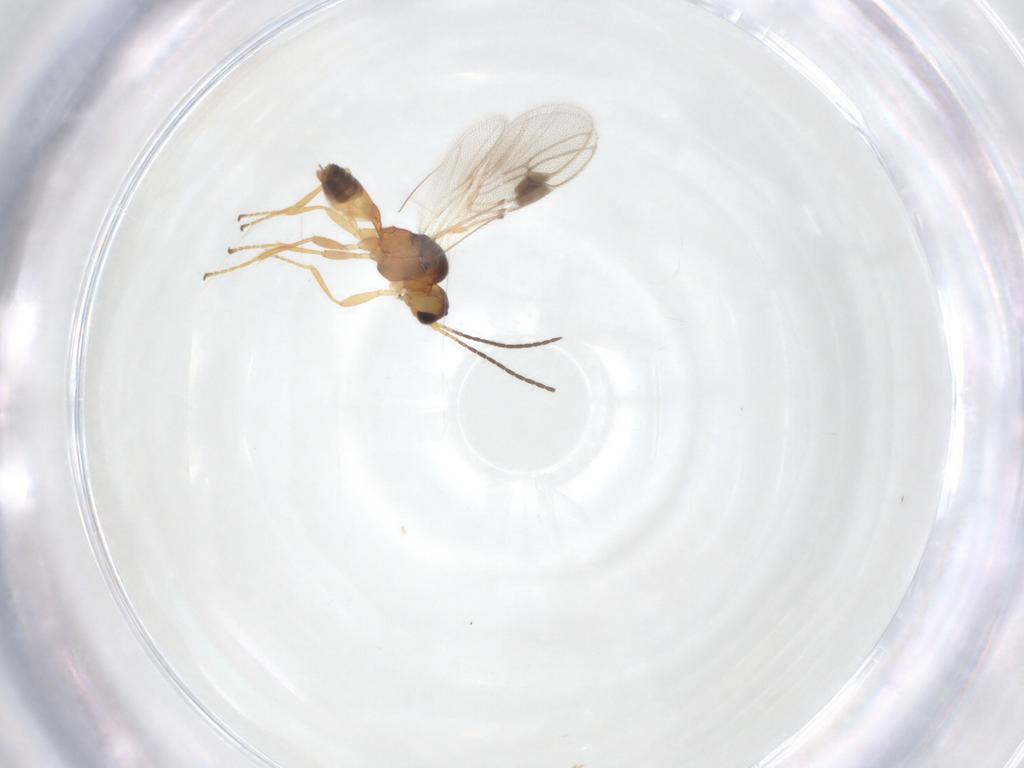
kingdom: Animalia
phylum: Arthropoda
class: Insecta
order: Hymenoptera
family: Braconidae
